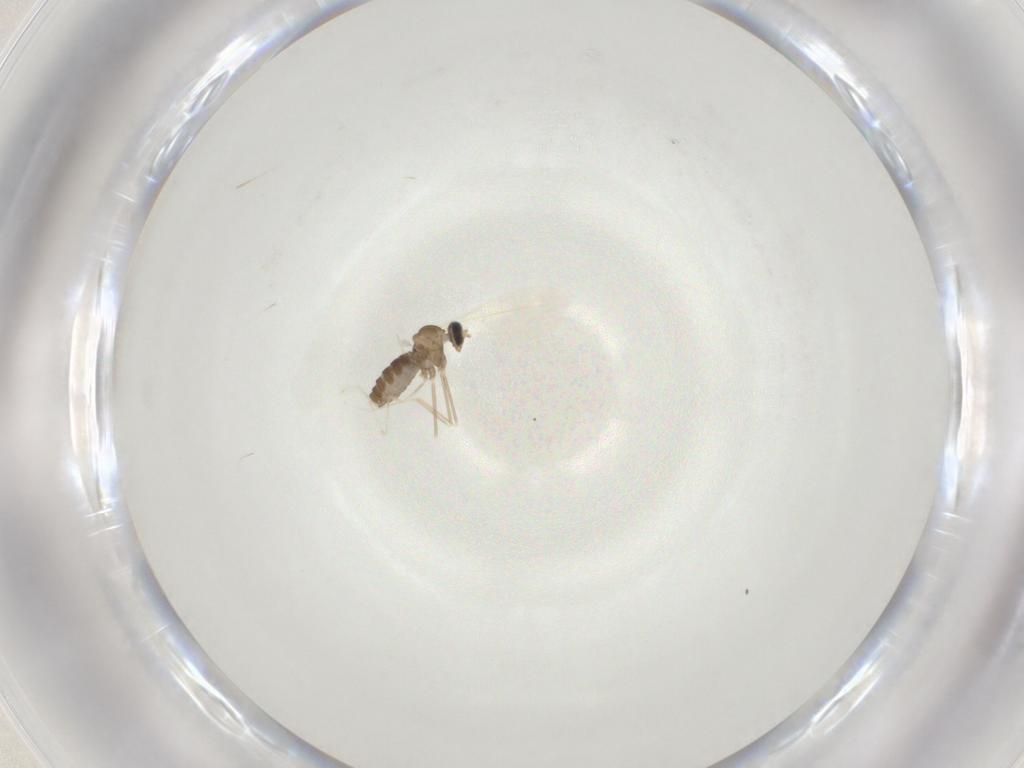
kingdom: Animalia
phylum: Arthropoda
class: Insecta
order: Diptera
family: Cecidomyiidae
